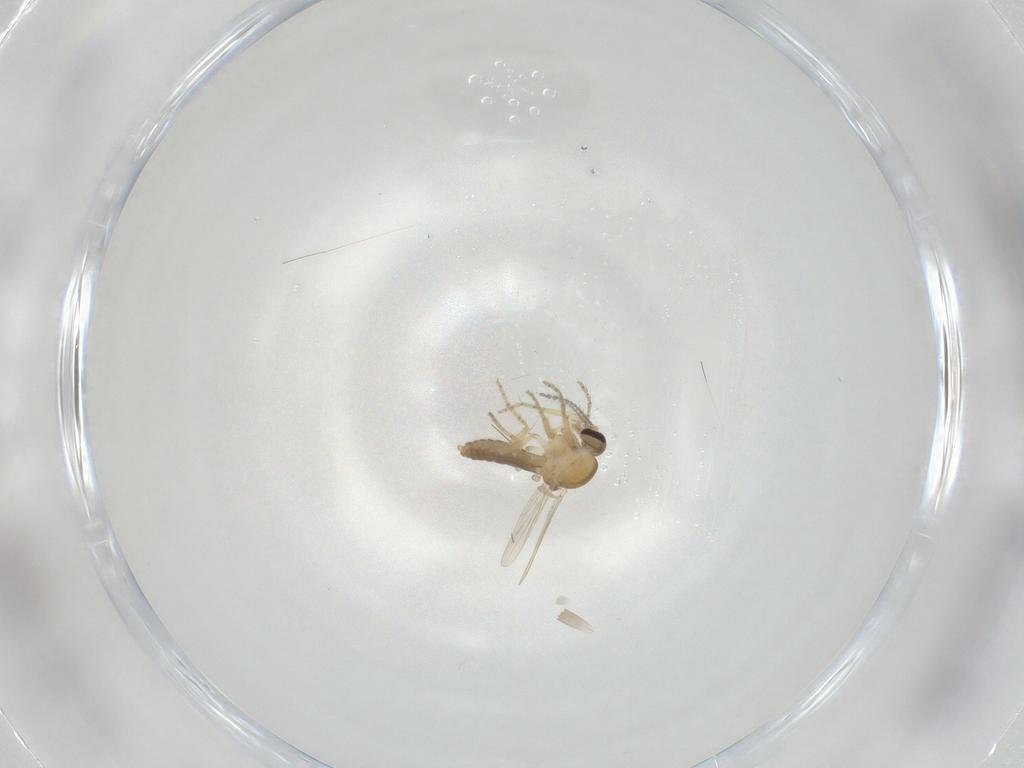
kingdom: Animalia
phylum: Arthropoda
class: Insecta
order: Diptera
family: Ceratopogonidae
